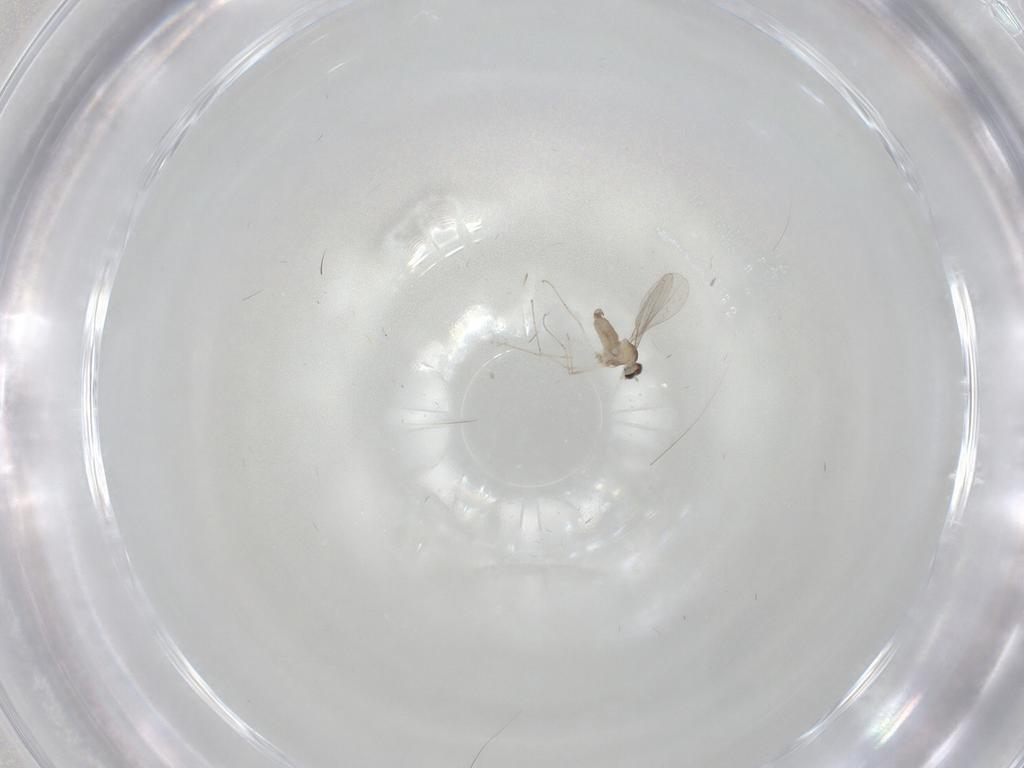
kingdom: Animalia
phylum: Arthropoda
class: Insecta
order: Diptera
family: Cecidomyiidae
